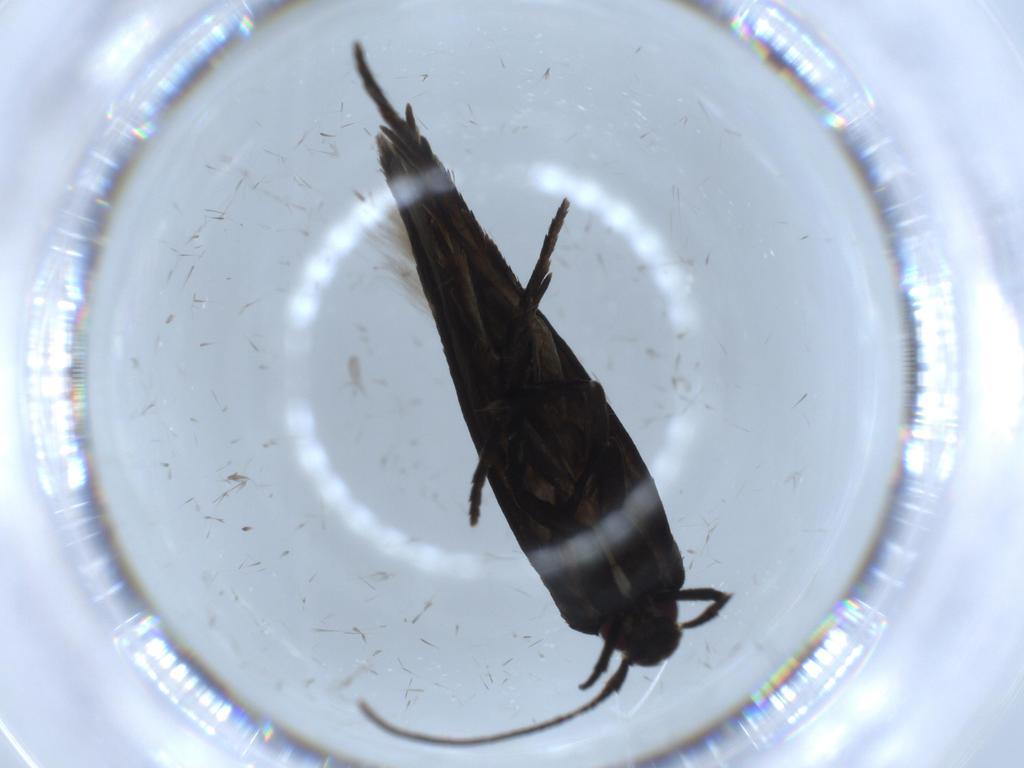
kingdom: Animalia
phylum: Arthropoda
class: Insecta
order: Lepidoptera
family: Cosmopterigidae
